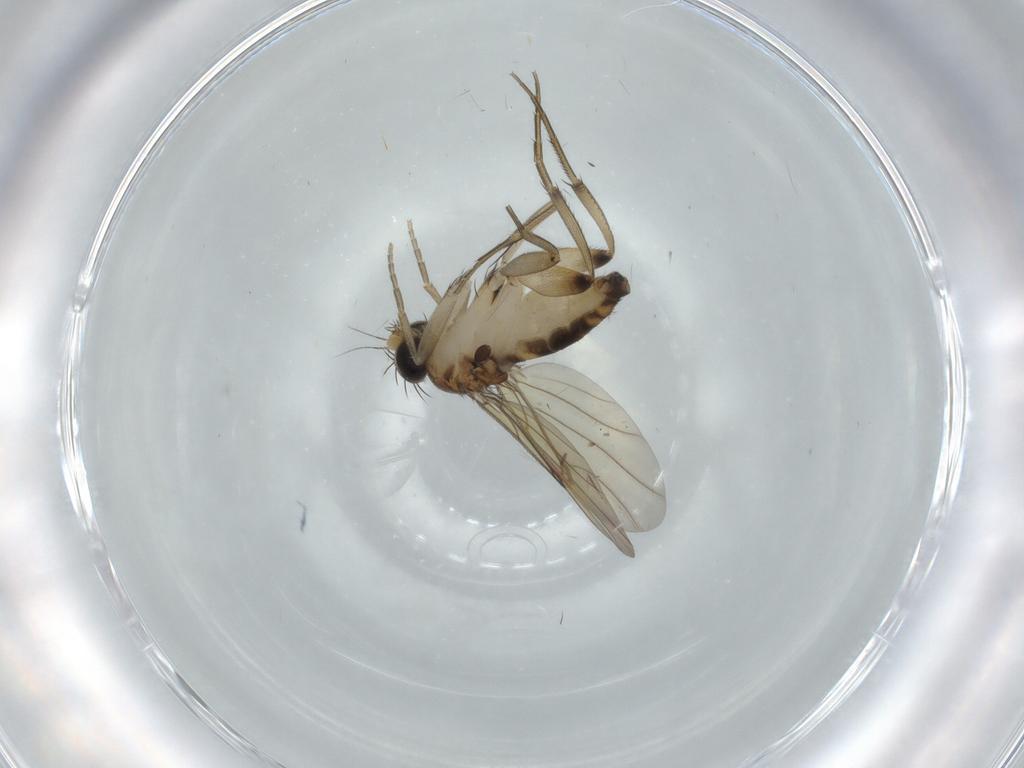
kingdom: Animalia
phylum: Arthropoda
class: Insecta
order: Diptera
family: Phoridae
